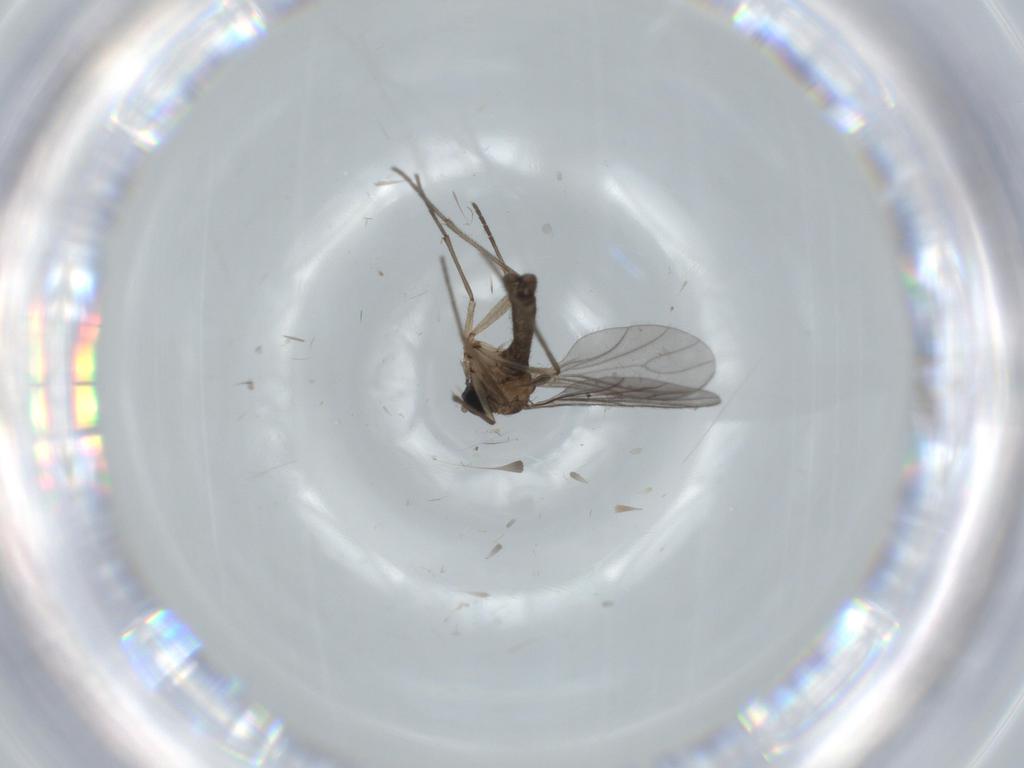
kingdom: Animalia
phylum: Arthropoda
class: Insecta
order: Diptera
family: Sciaridae
